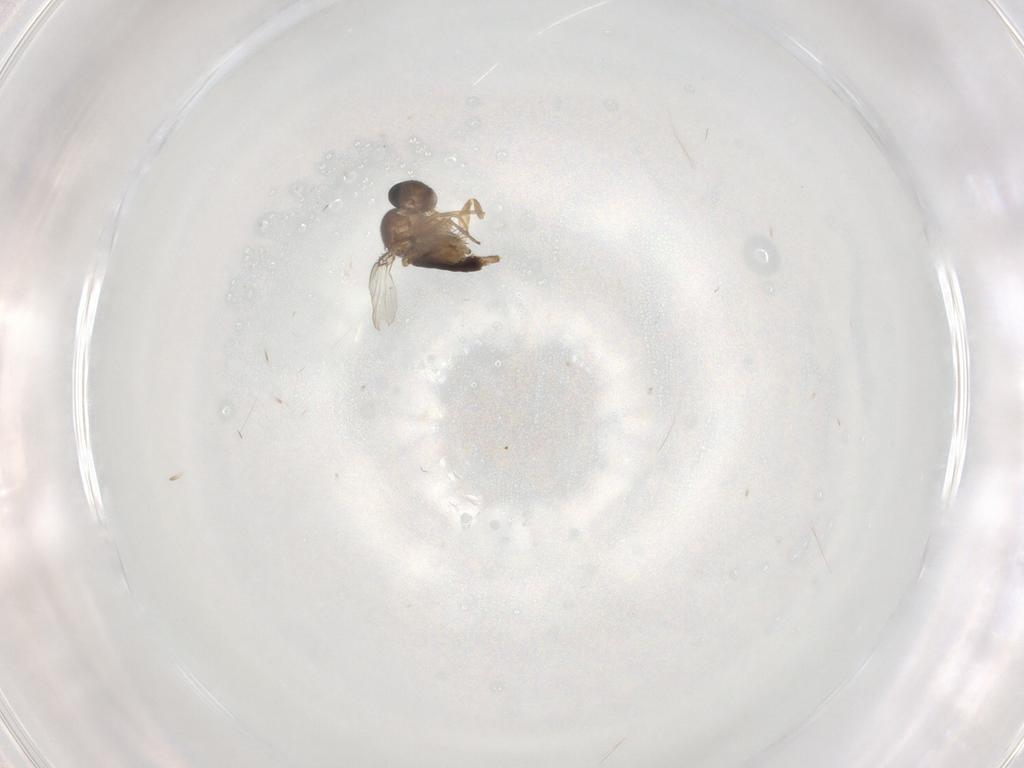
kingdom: Animalia
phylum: Arthropoda
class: Insecta
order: Diptera
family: Phoridae
